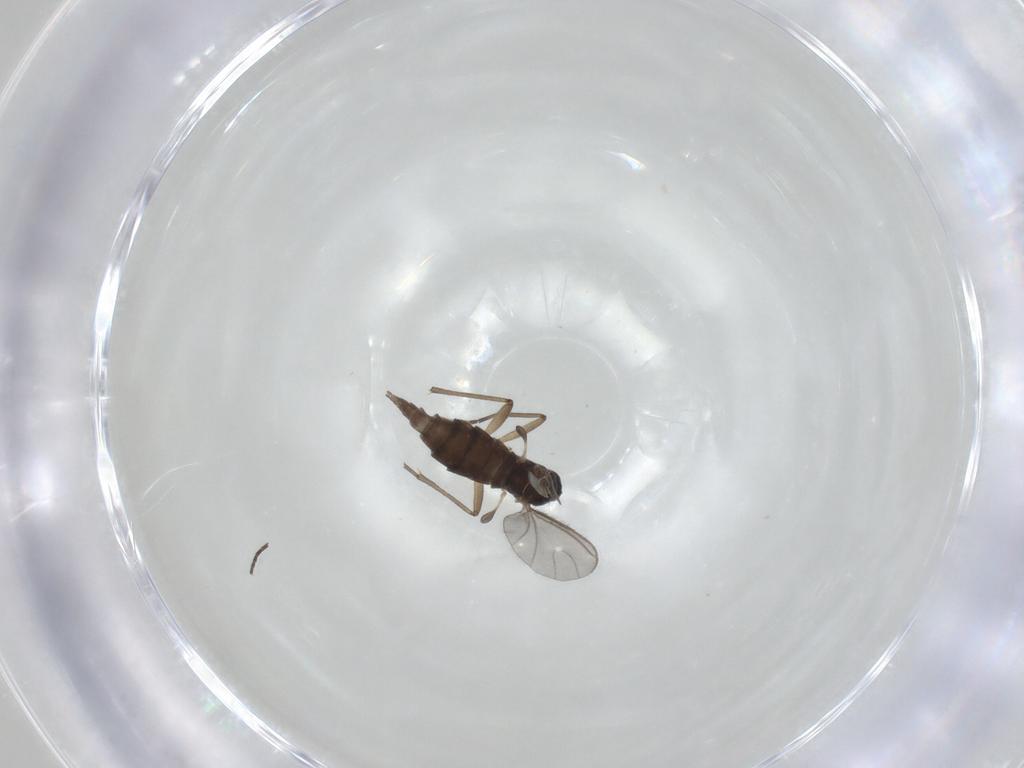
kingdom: Animalia
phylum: Arthropoda
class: Insecta
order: Diptera
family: Sciaridae
